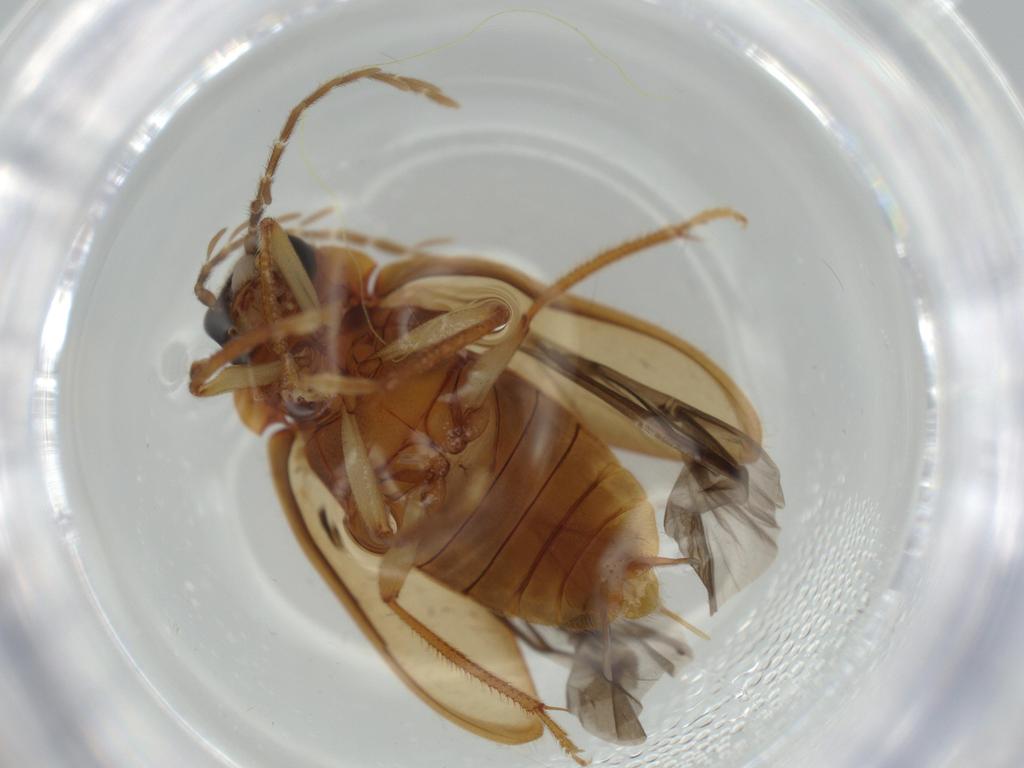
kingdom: Animalia
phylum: Arthropoda
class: Insecta
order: Coleoptera
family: Ptilodactylidae
